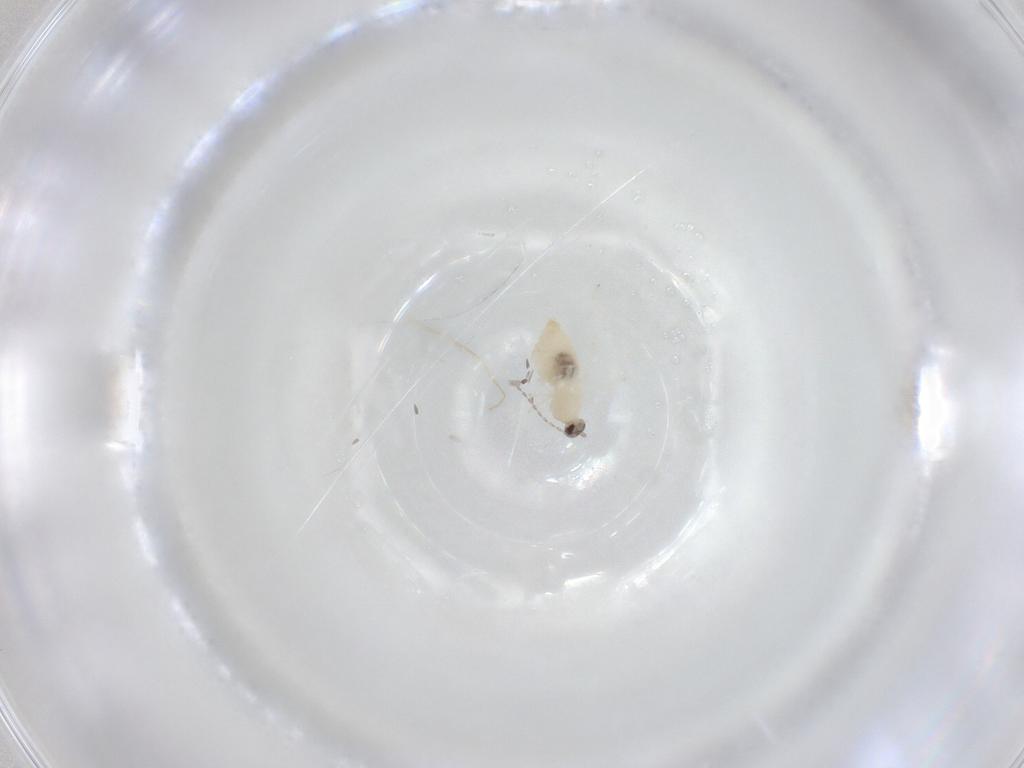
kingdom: Animalia
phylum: Arthropoda
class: Insecta
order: Diptera
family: Cecidomyiidae
